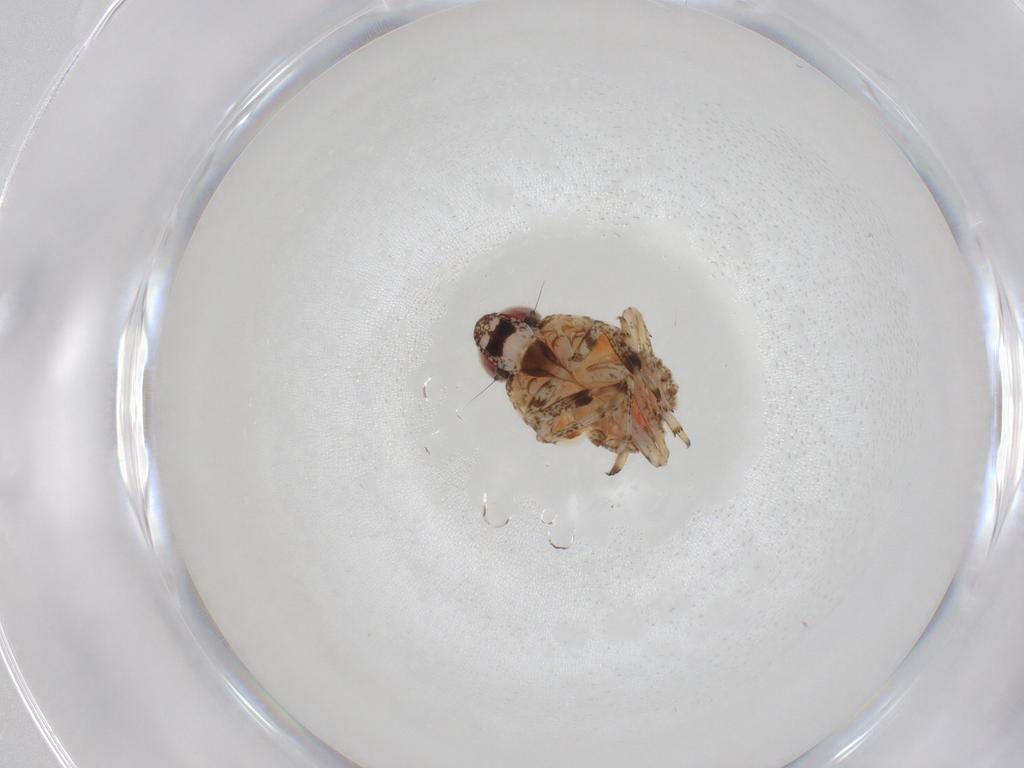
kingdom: Animalia
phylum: Arthropoda
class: Insecta
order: Hemiptera
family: Issidae
